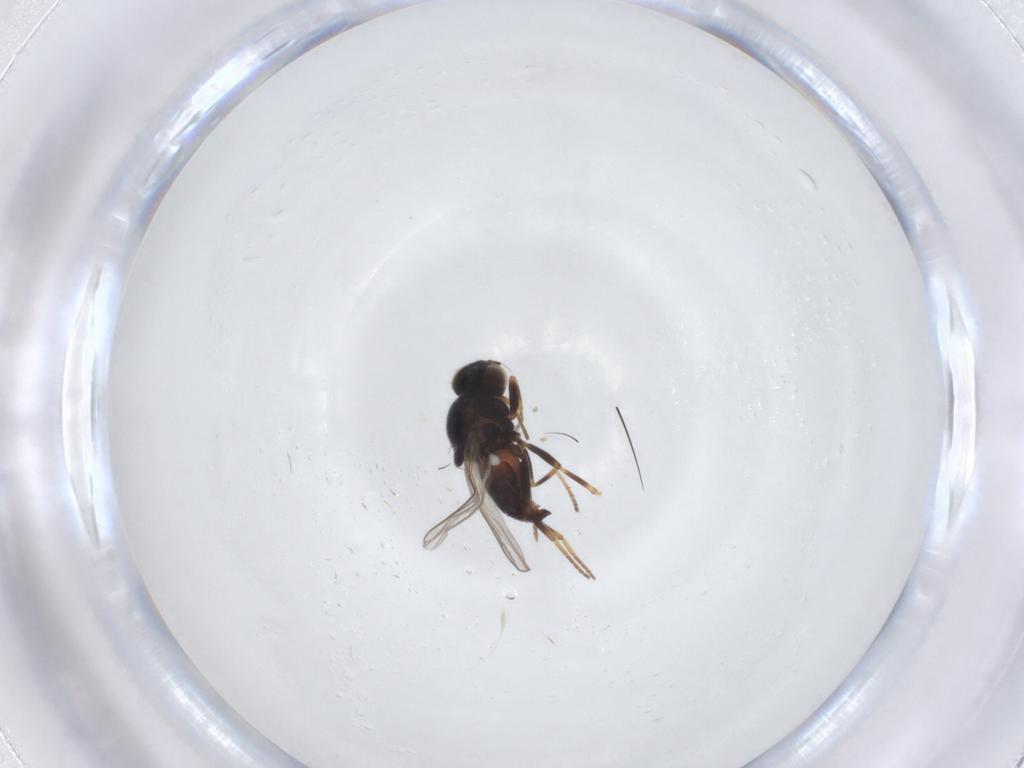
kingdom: Animalia
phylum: Arthropoda
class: Insecta
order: Diptera
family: Chloropidae
